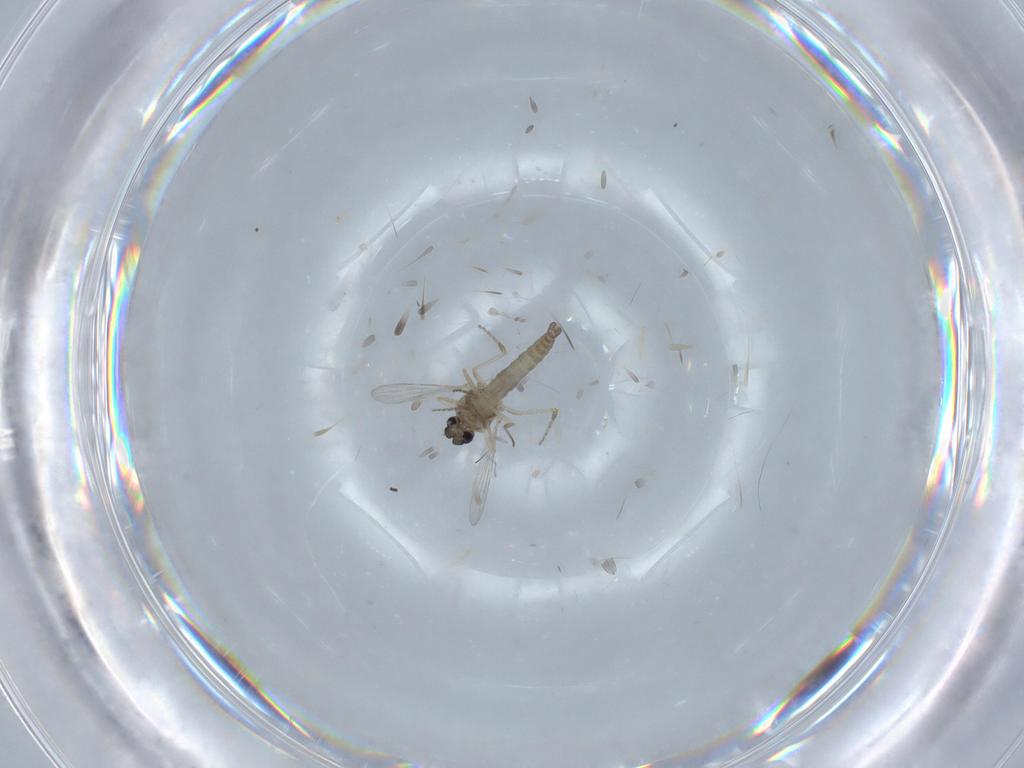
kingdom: Animalia
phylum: Arthropoda
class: Insecta
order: Diptera
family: Ceratopogonidae
